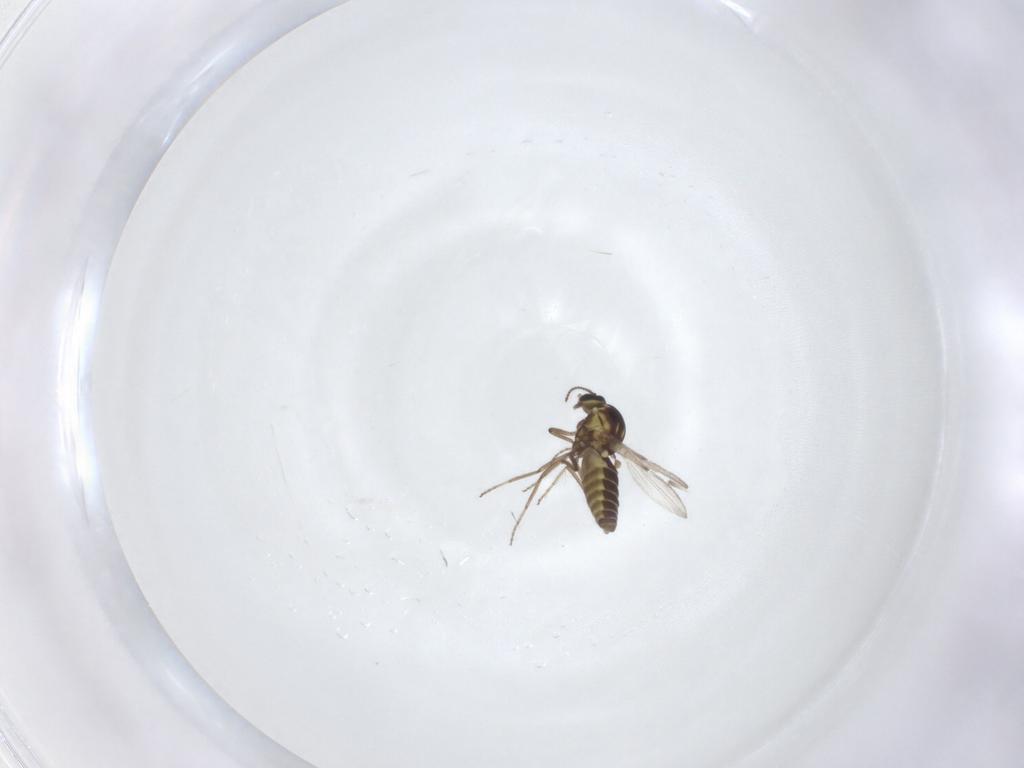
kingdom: Animalia
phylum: Arthropoda
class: Insecta
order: Diptera
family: Ceratopogonidae
